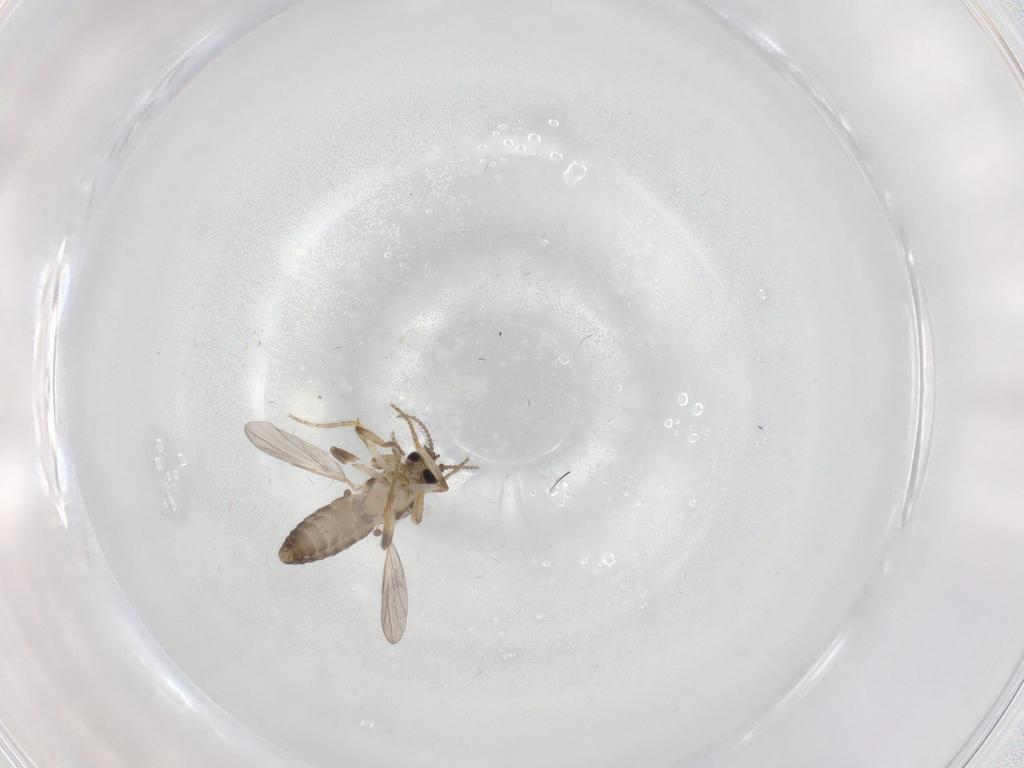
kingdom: Animalia
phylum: Arthropoda
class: Insecta
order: Diptera
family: Ceratopogonidae
